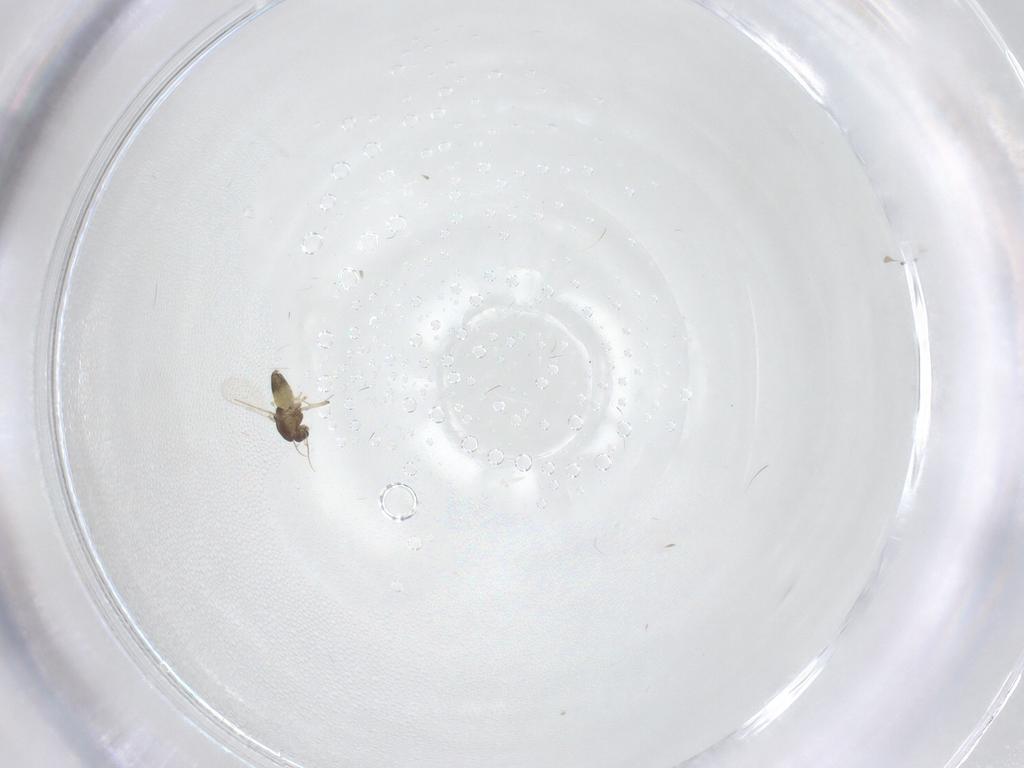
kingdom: Animalia
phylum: Arthropoda
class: Insecta
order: Diptera
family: Chironomidae
